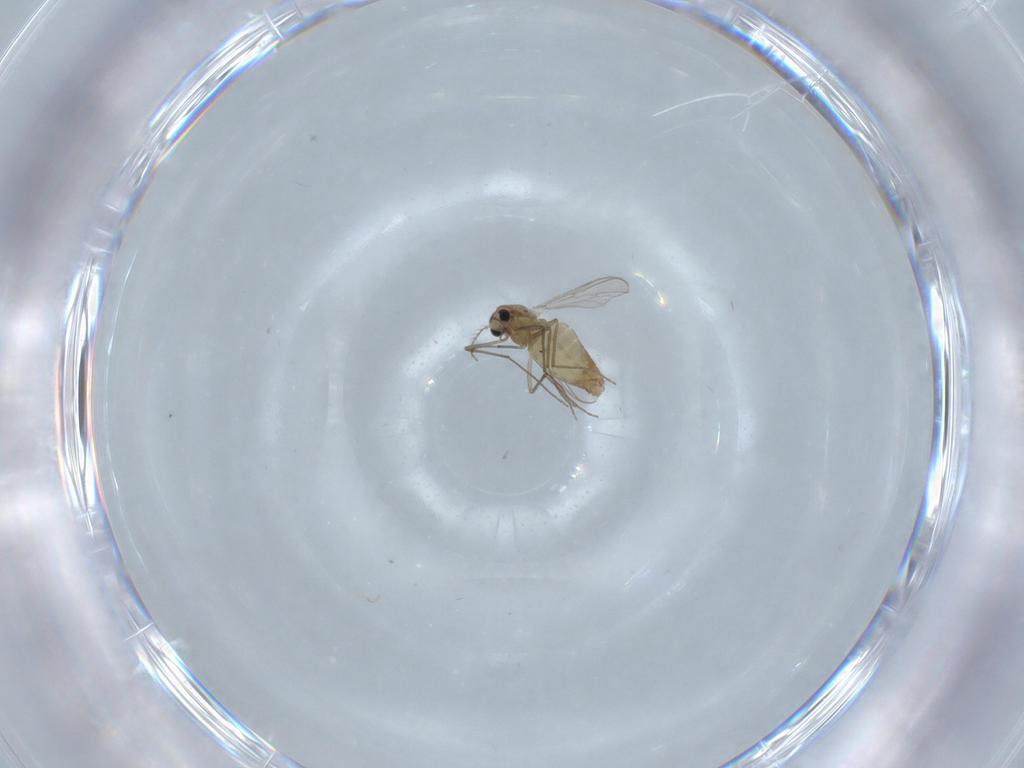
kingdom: Animalia
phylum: Arthropoda
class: Insecta
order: Diptera
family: Chironomidae
